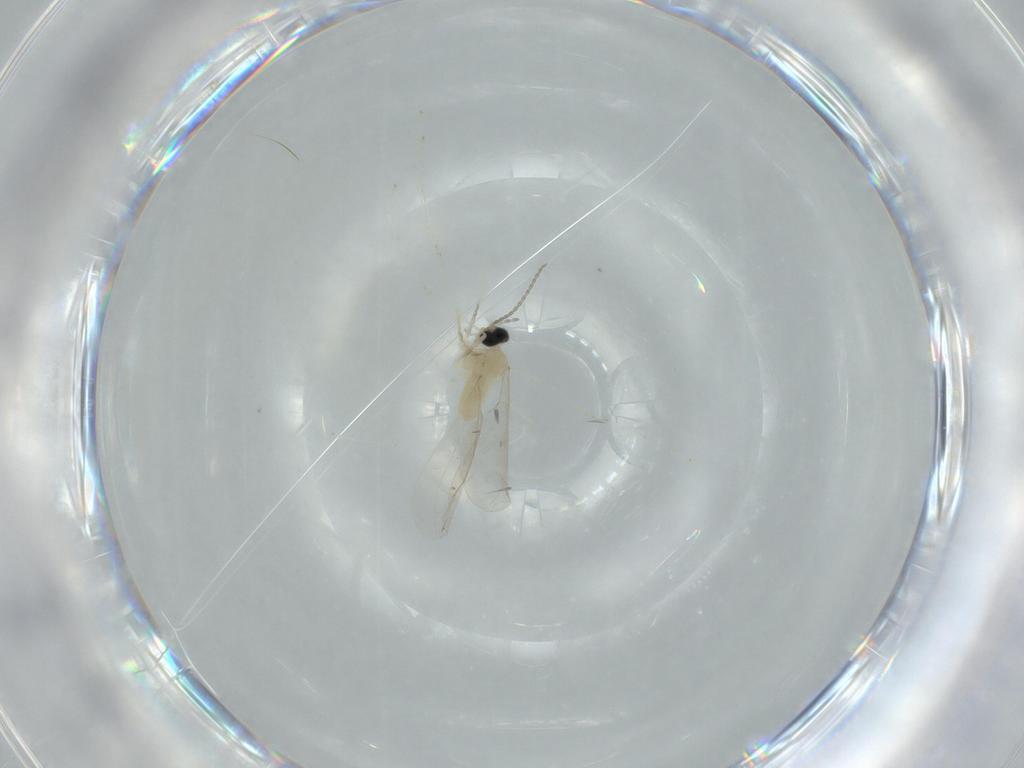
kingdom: Animalia
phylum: Arthropoda
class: Insecta
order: Diptera
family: Cecidomyiidae
